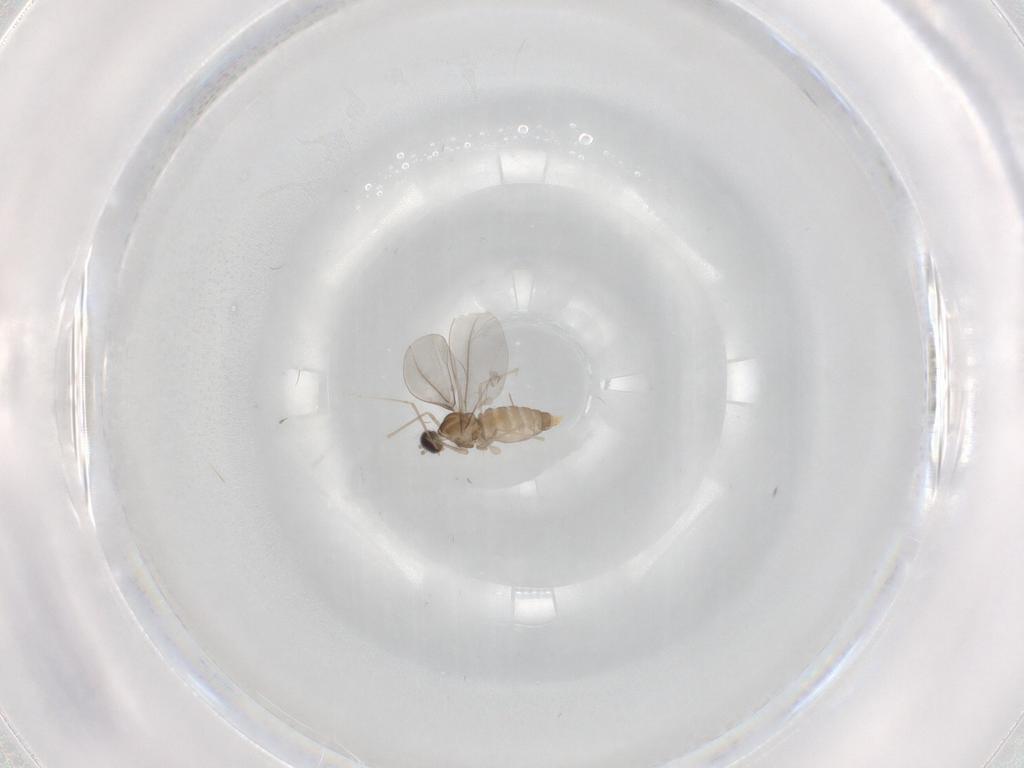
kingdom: Animalia
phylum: Arthropoda
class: Insecta
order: Diptera
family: Cecidomyiidae
